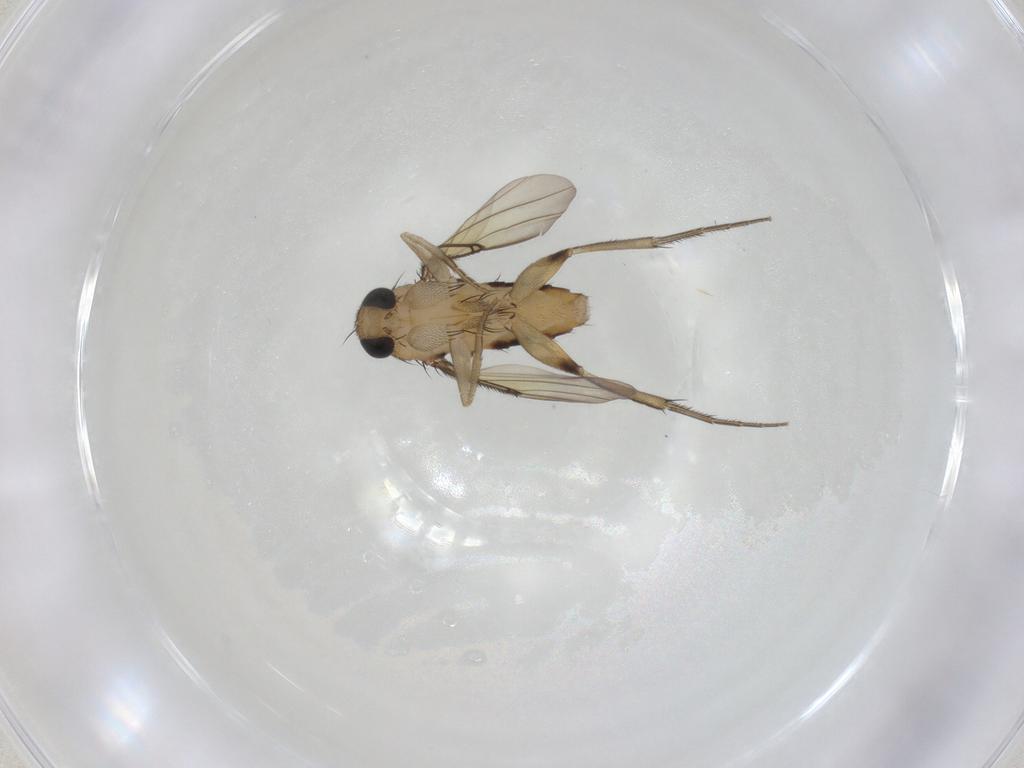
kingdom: Animalia
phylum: Arthropoda
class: Insecta
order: Diptera
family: Phoridae
